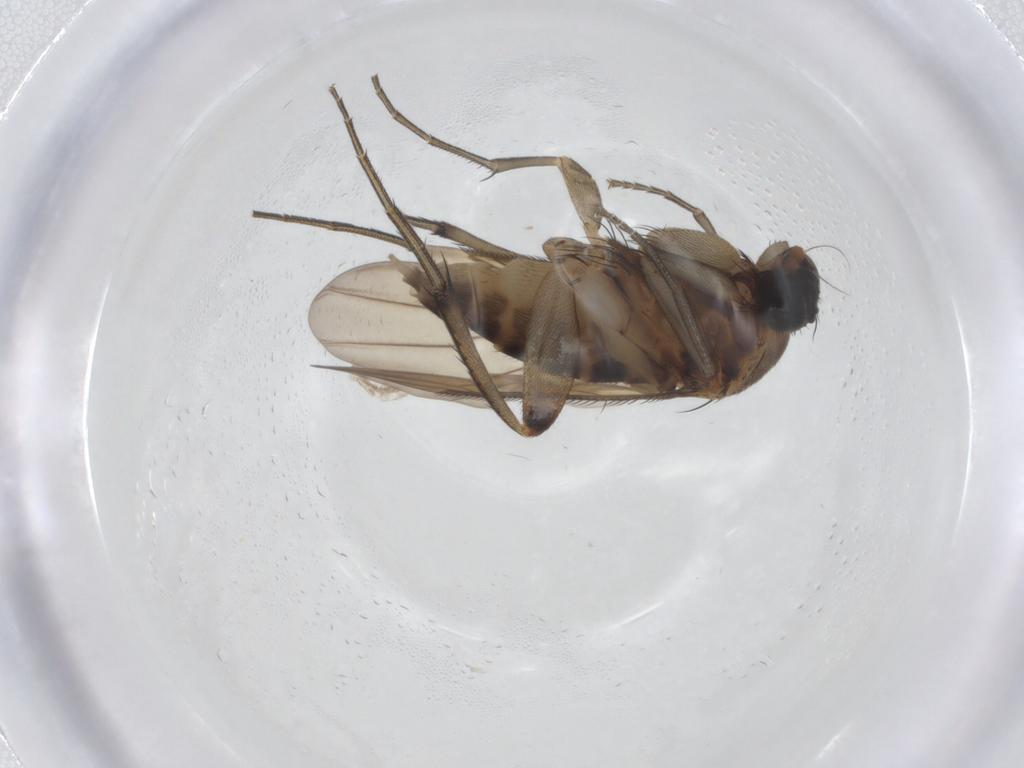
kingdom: Animalia
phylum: Arthropoda
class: Insecta
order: Diptera
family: Phoridae
